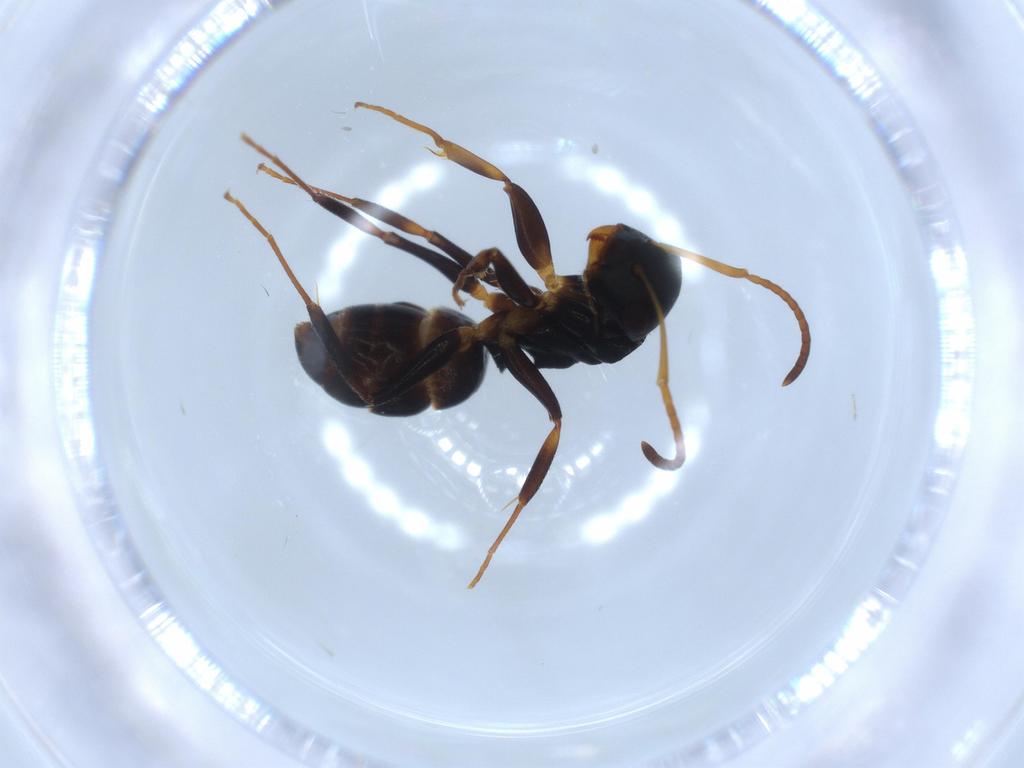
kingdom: Animalia
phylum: Arthropoda
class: Insecta
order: Hymenoptera
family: Formicidae
